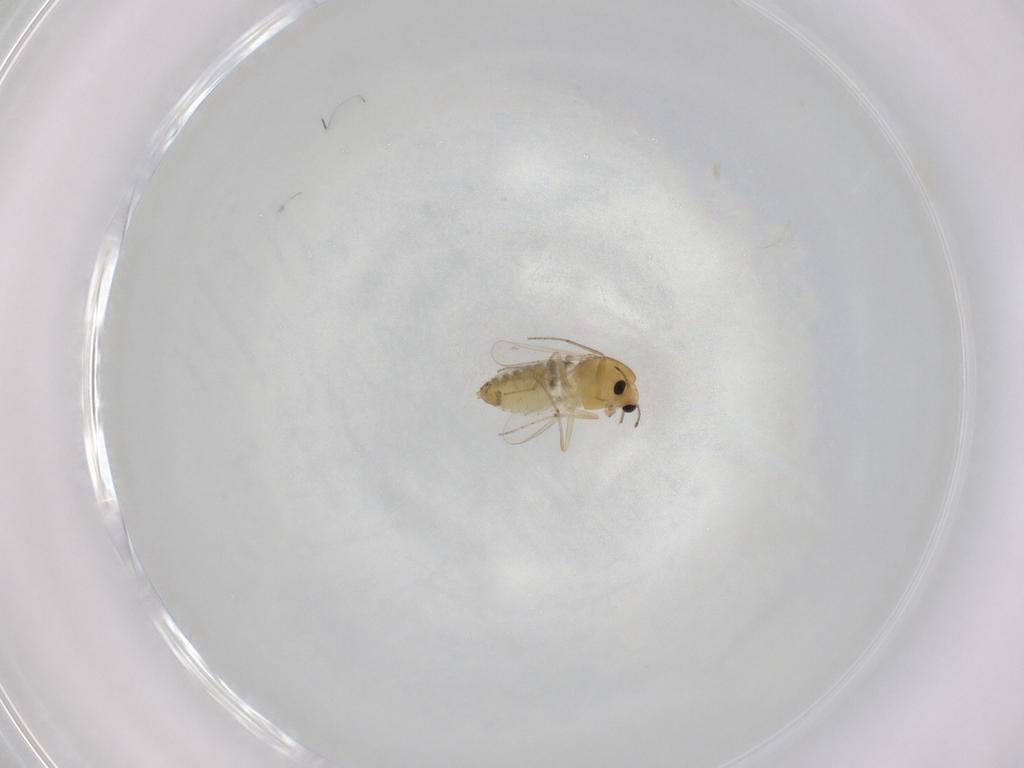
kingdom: Animalia
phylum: Arthropoda
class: Insecta
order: Diptera
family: Chironomidae
